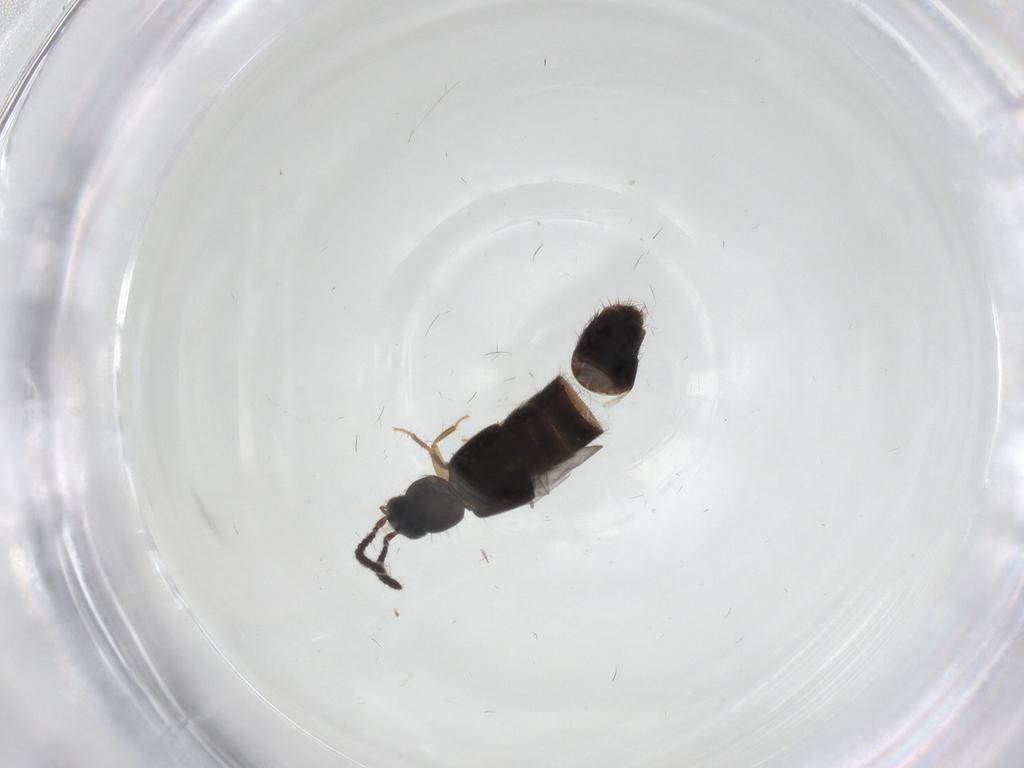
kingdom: Animalia
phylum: Arthropoda
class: Insecta
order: Coleoptera
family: Staphylinidae
